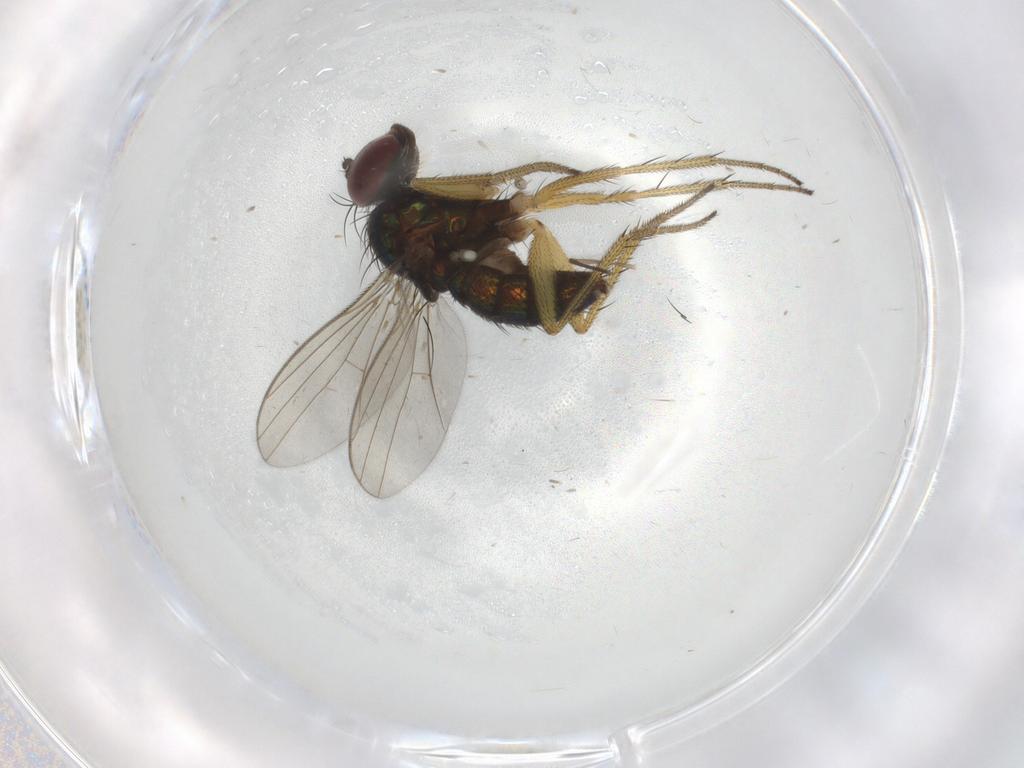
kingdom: Animalia
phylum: Arthropoda
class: Insecta
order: Diptera
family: Chironomidae
